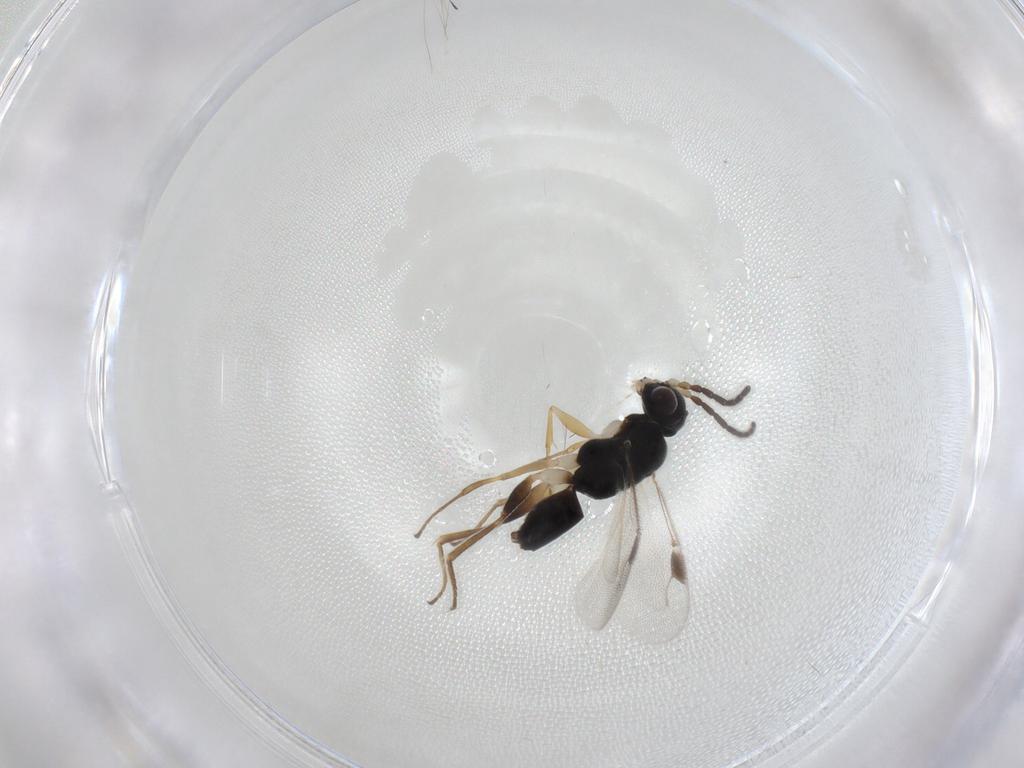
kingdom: Animalia
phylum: Arthropoda
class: Insecta
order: Hymenoptera
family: Dryinidae
